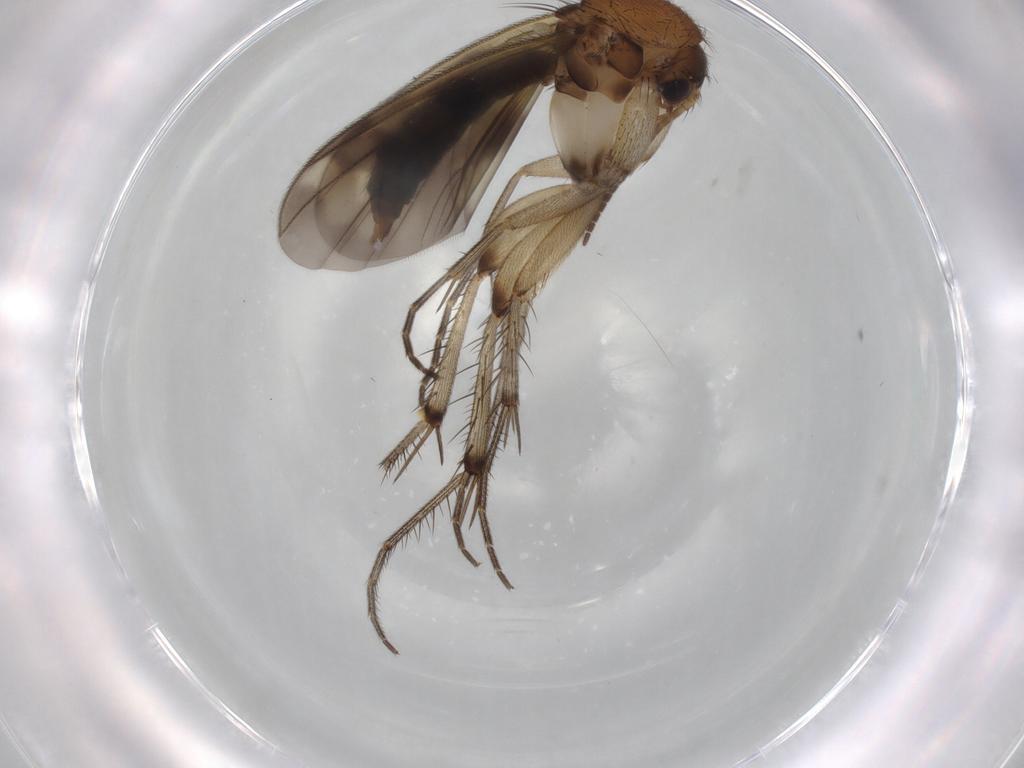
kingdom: Animalia
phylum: Arthropoda
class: Insecta
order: Diptera
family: Mycetophilidae
